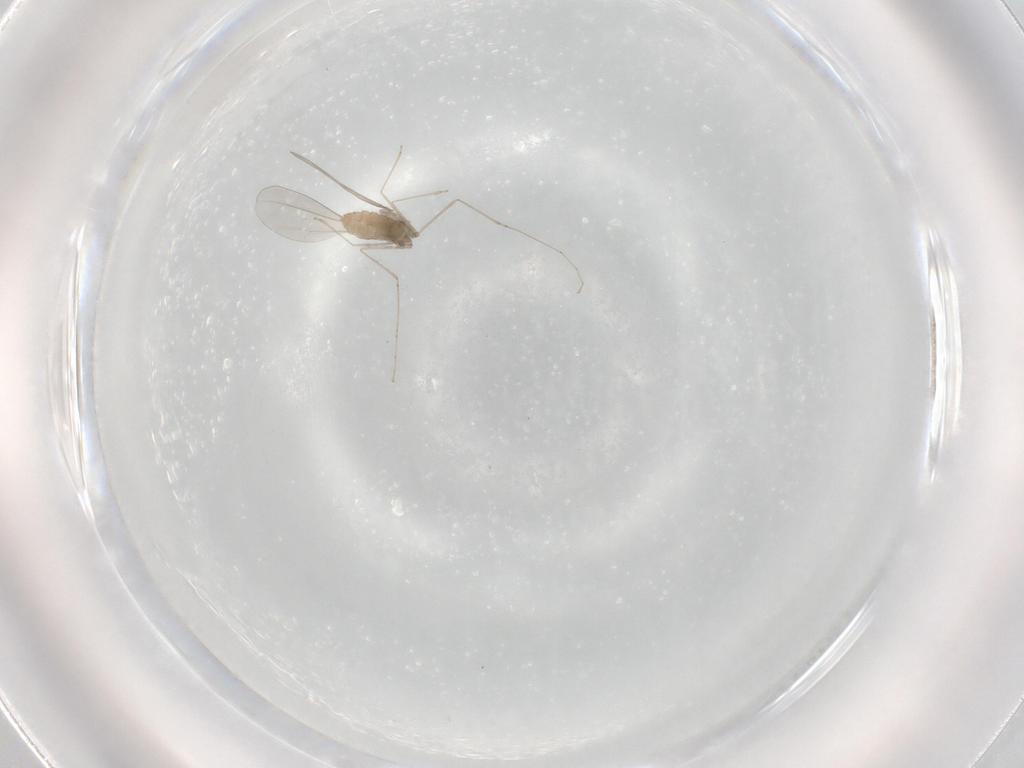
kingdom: Animalia
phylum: Arthropoda
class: Insecta
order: Diptera
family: Cecidomyiidae
